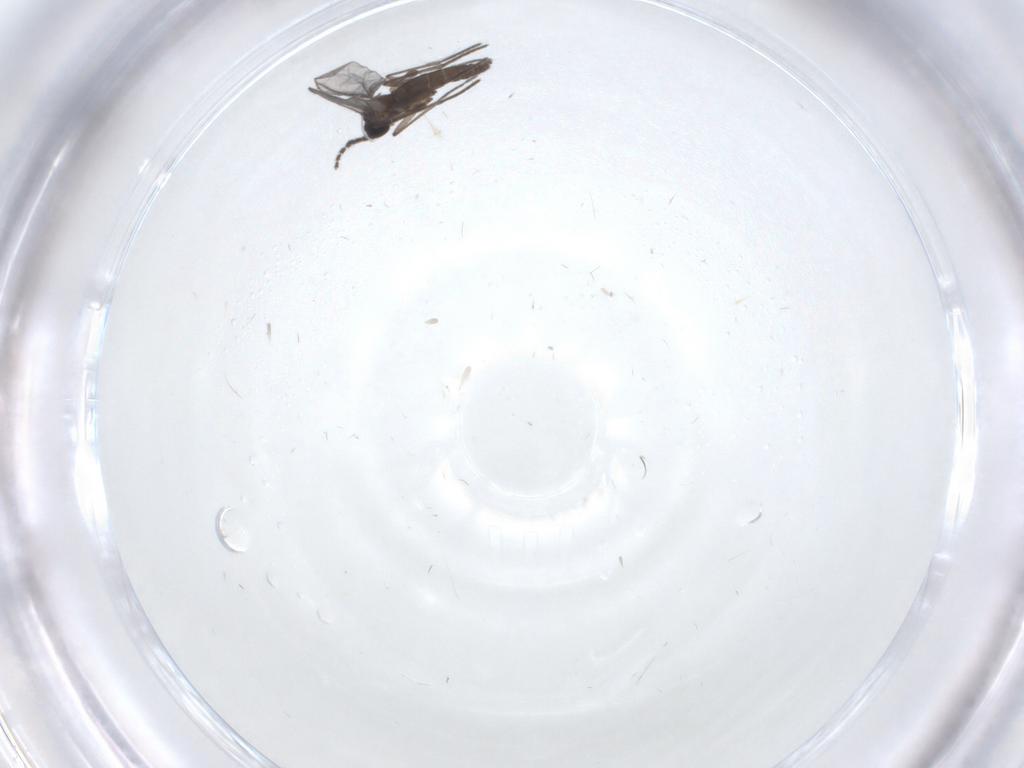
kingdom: Animalia
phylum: Arthropoda
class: Insecta
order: Diptera
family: Sciaridae
